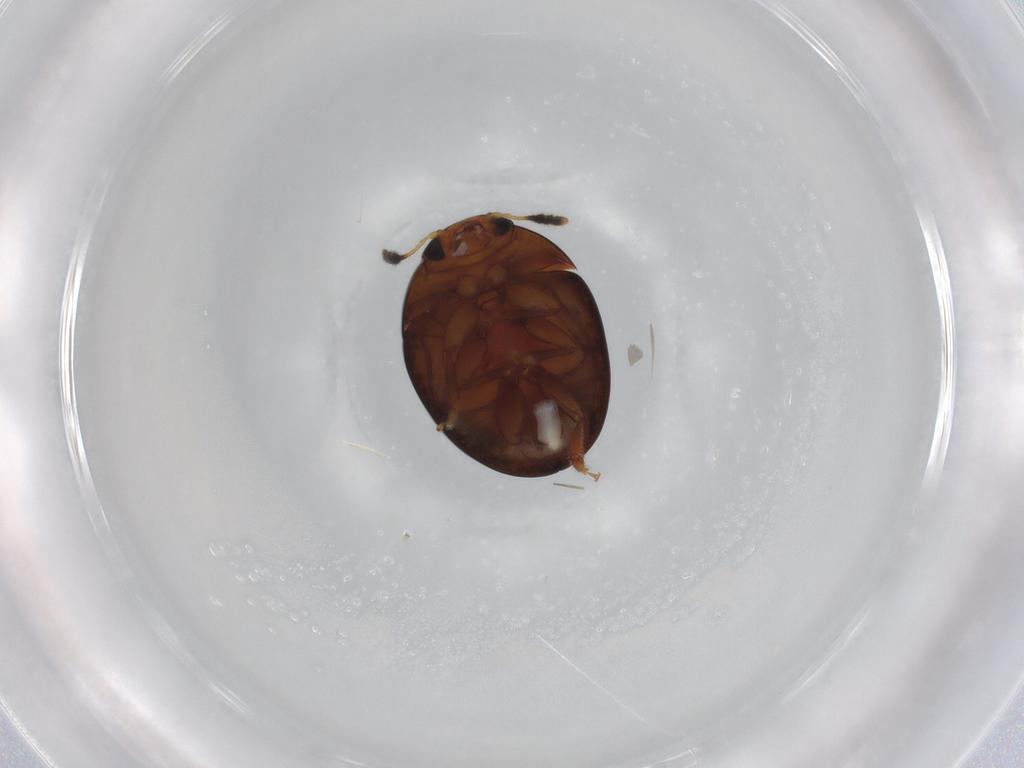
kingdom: Animalia
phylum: Arthropoda
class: Insecta
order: Coleoptera
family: Phalacridae
